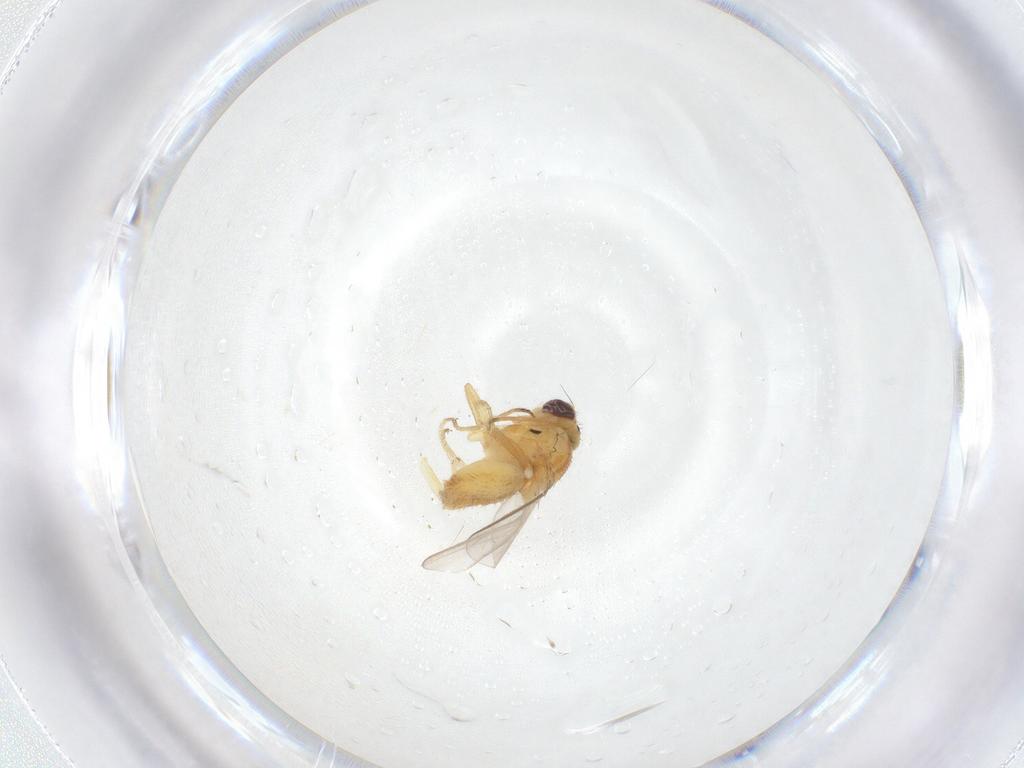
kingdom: Animalia
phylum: Arthropoda
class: Insecta
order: Diptera
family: Chloropidae
